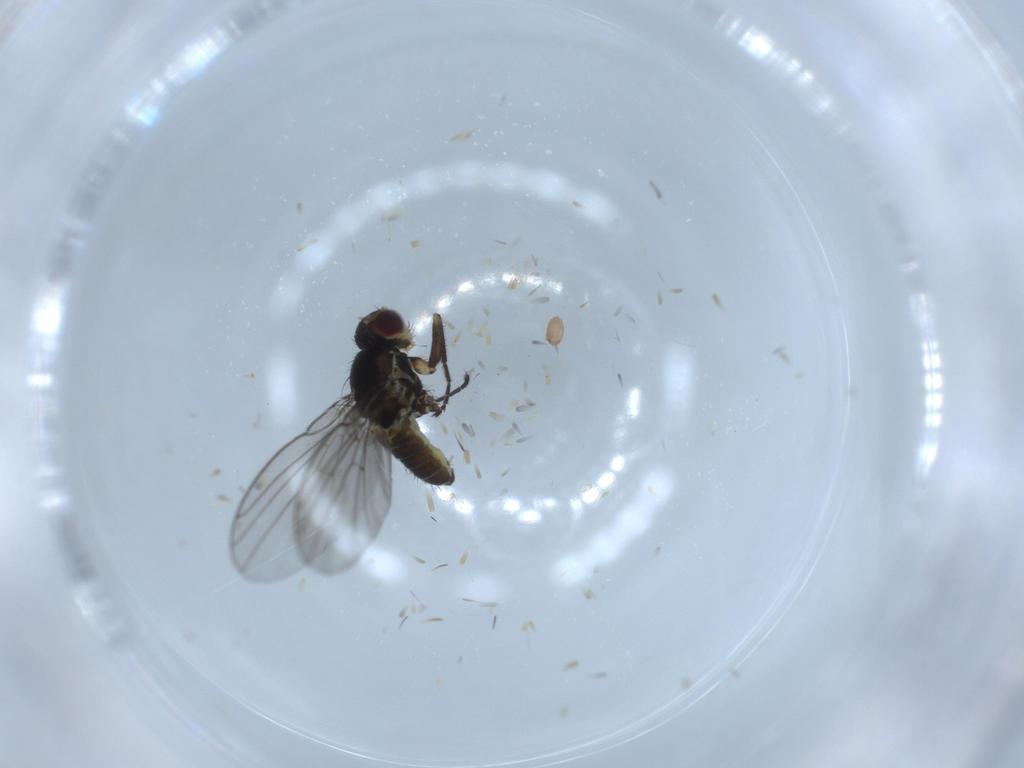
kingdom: Animalia
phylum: Arthropoda
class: Insecta
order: Diptera
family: Agromyzidae
